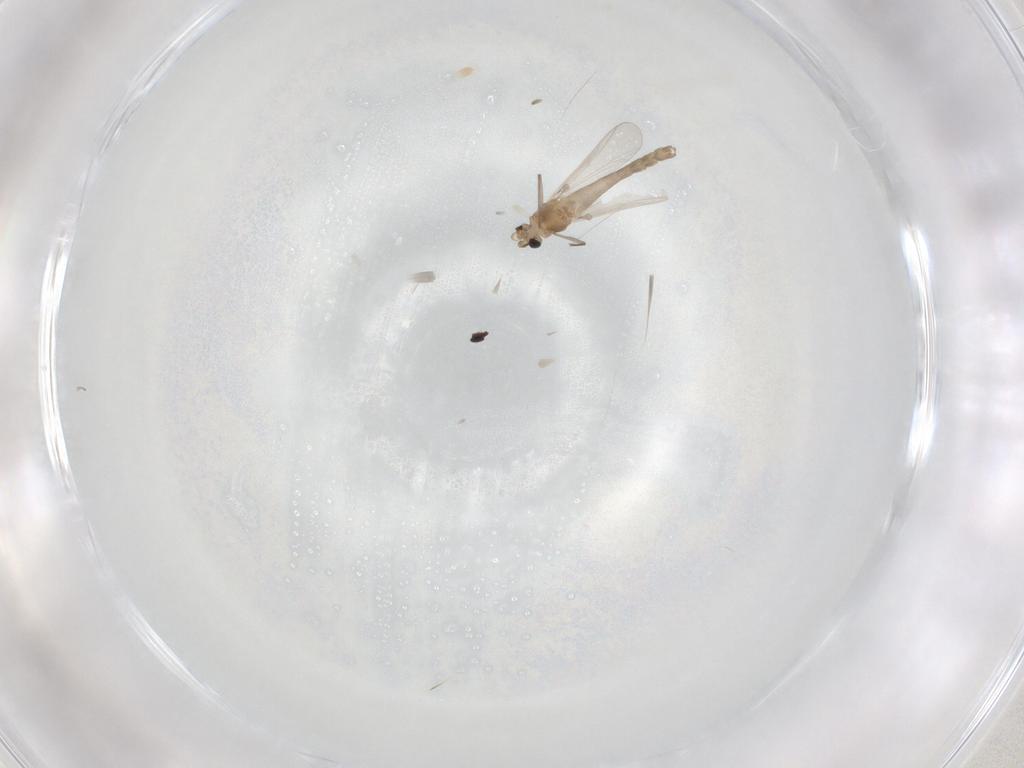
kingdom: Animalia
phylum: Arthropoda
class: Insecta
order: Diptera
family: Chironomidae
